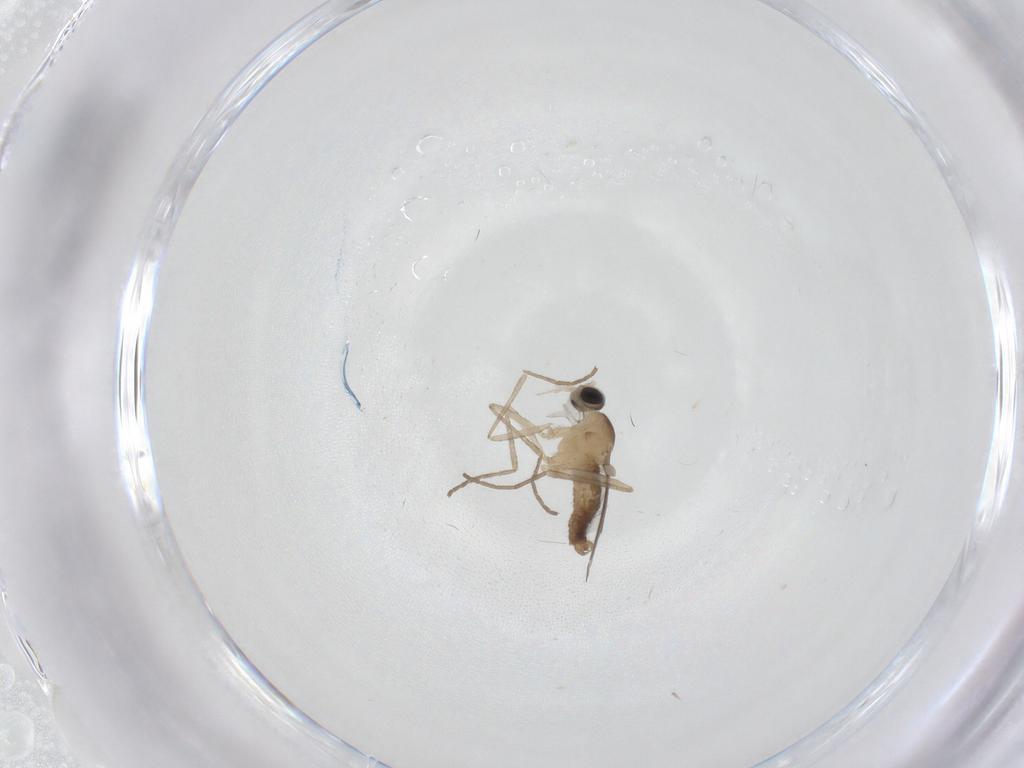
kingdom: Animalia
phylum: Arthropoda
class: Insecta
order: Diptera
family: Cecidomyiidae
